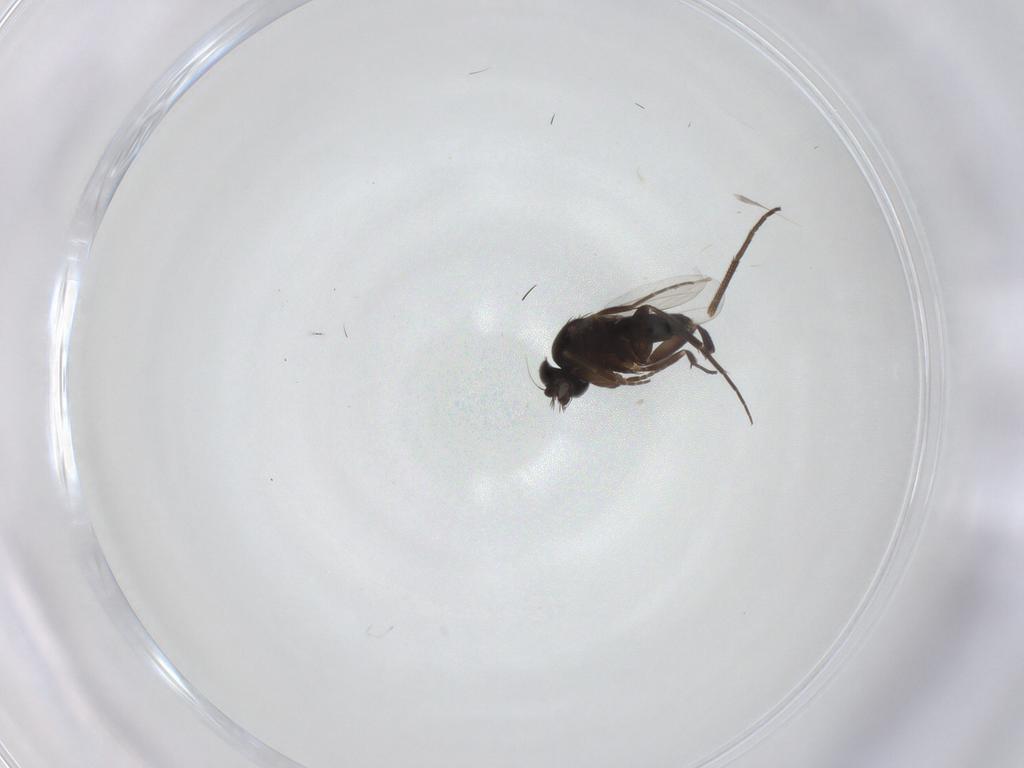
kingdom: Animalia
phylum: Arthropoda
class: Insecta
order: Diptera
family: Phoridae
